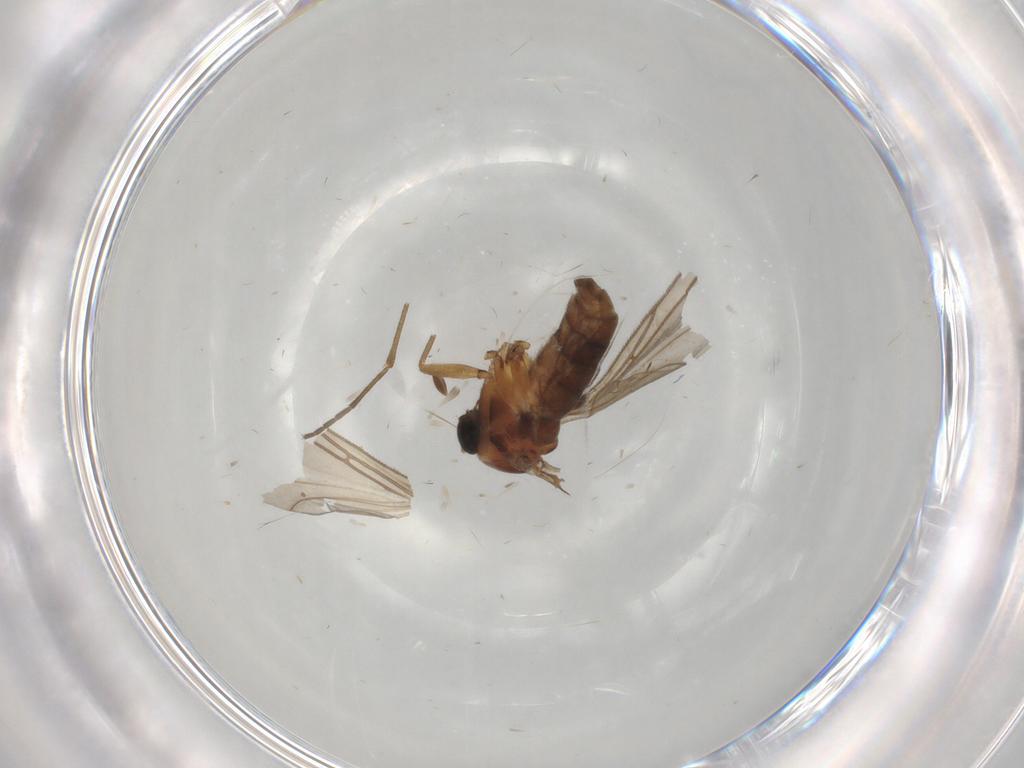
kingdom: Animalia
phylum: Arthropoda
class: Insecta
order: Diptera
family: Sciaridae
